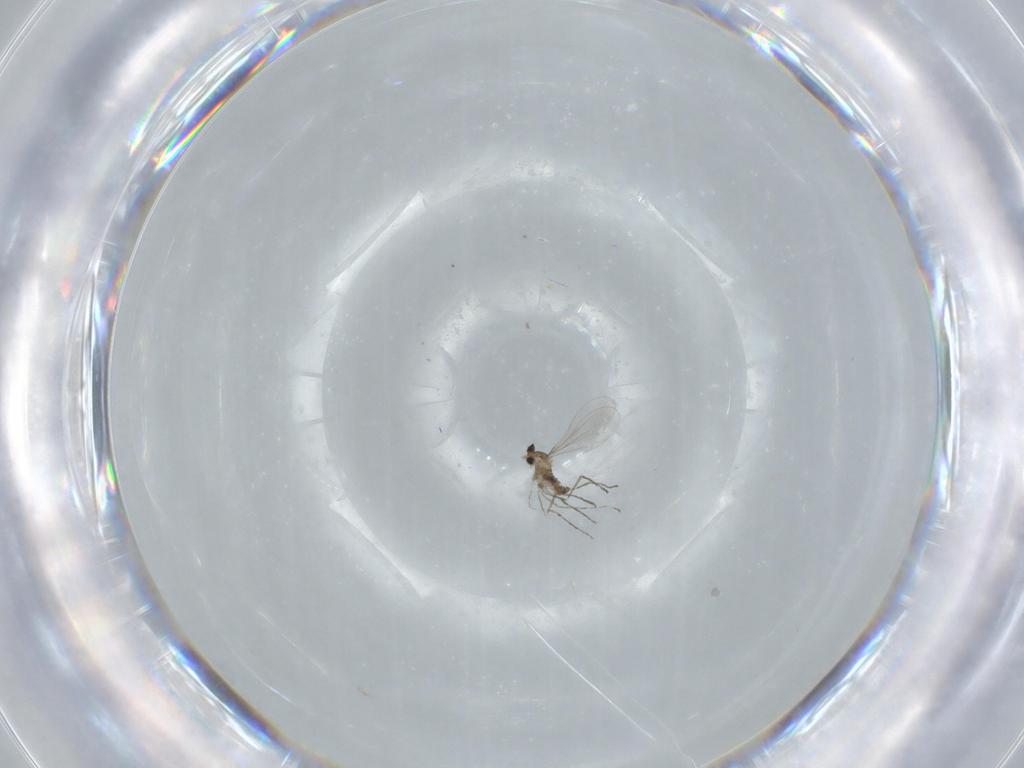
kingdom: Animalia
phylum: Arthropoda
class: Insecta
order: Diptera
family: Cecidomyiidae
